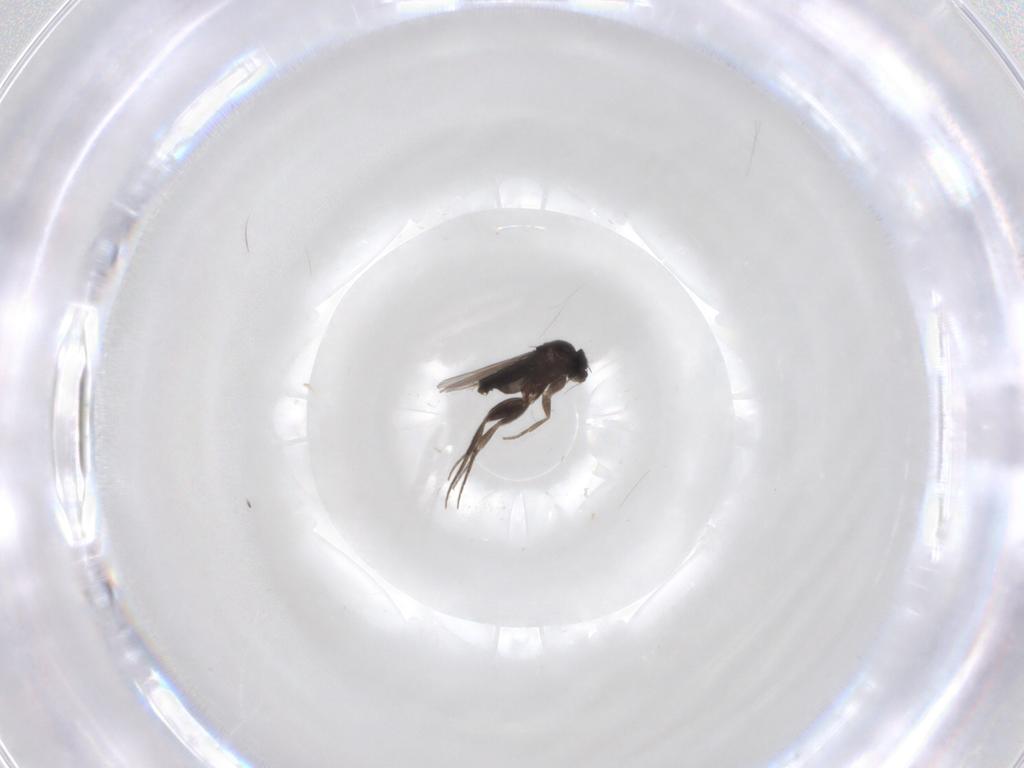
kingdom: Animalia
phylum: Arthropoda
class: Insecta
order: Diptera
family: Phoridae
